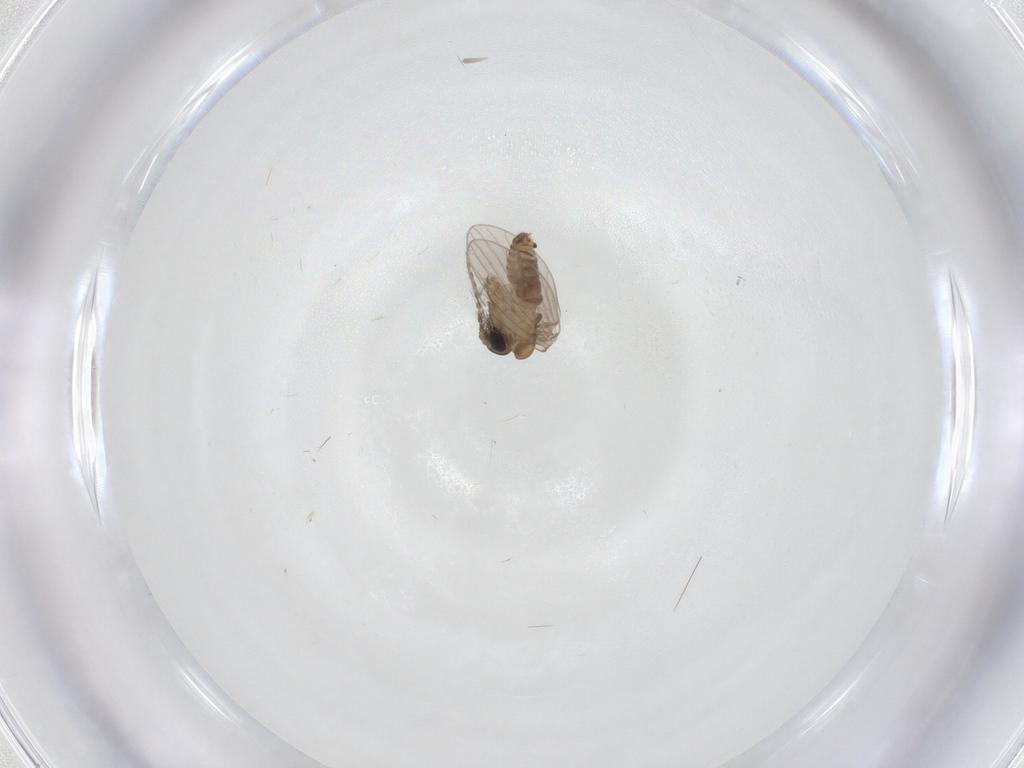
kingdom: Animalia
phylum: Arthropoda
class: Insecta
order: Diptera
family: Psychodidae
